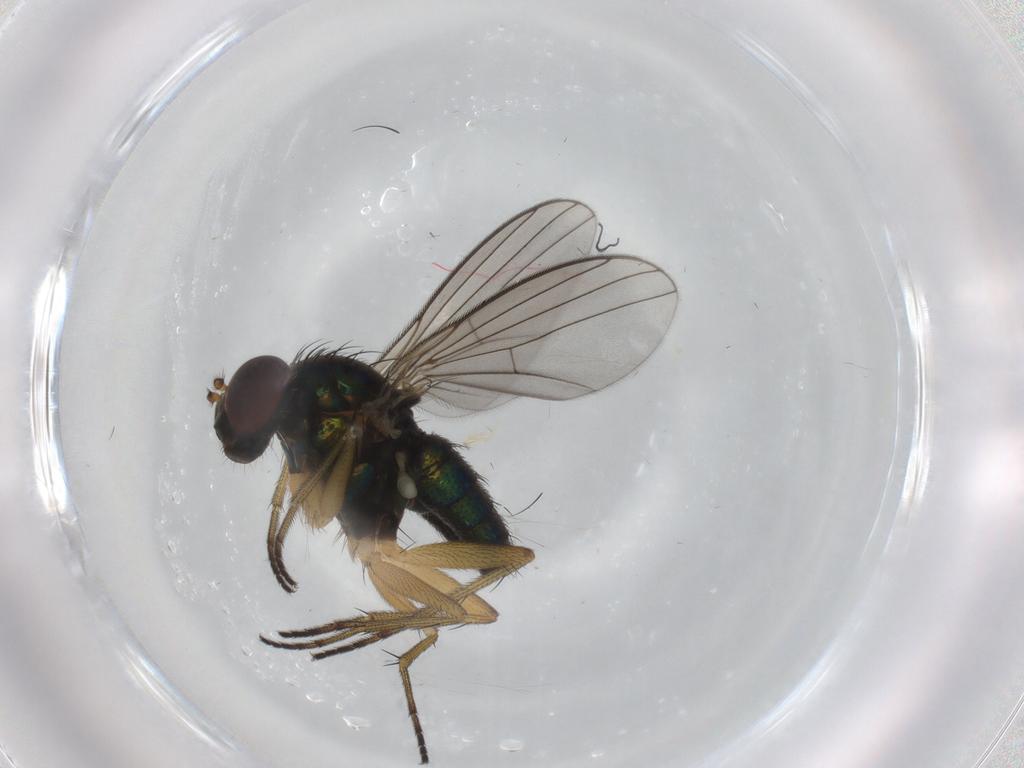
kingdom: Animalia
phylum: Arthropoda
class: Insecta
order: Diptera
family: Dolichopodidae
